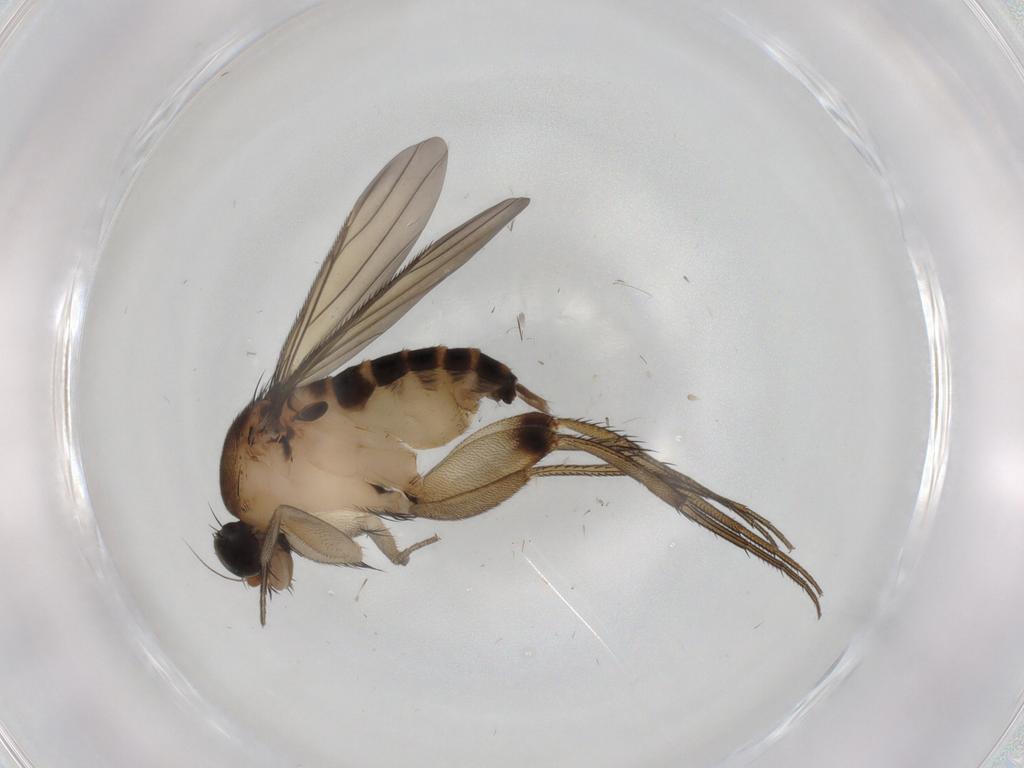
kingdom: Animalia
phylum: Arthropoda
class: Insecta
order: Diptera
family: Phoridae
